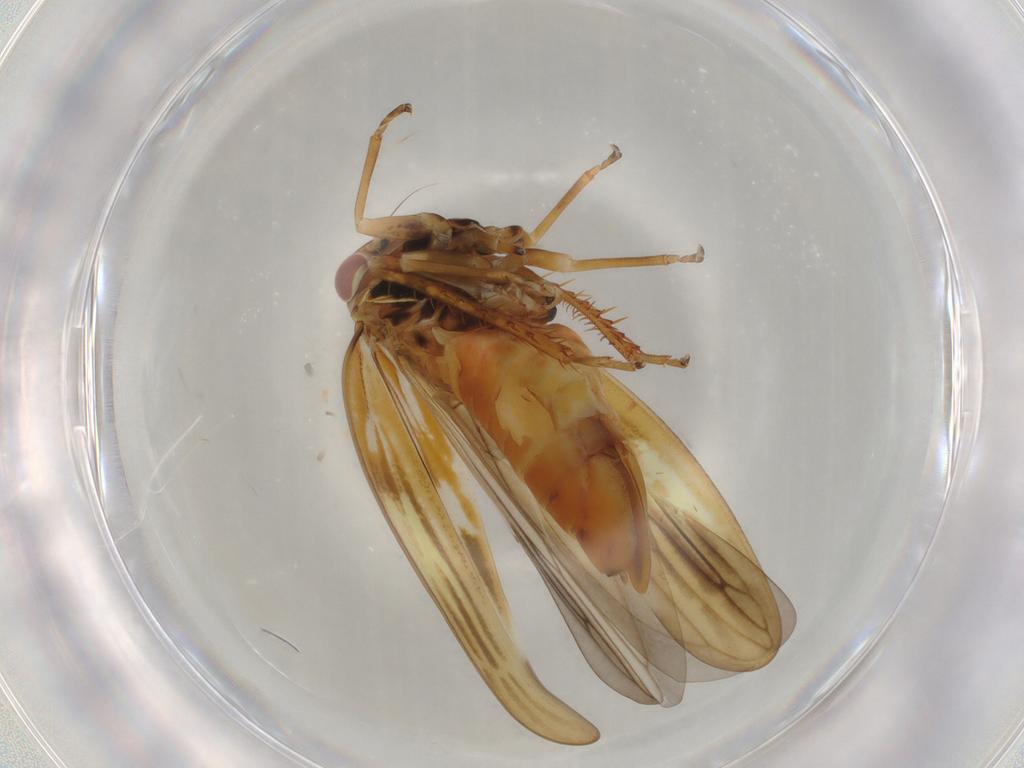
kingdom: Animalia
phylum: Arthropoda
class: Insecta
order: Hemiptera
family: Cicadellidae
